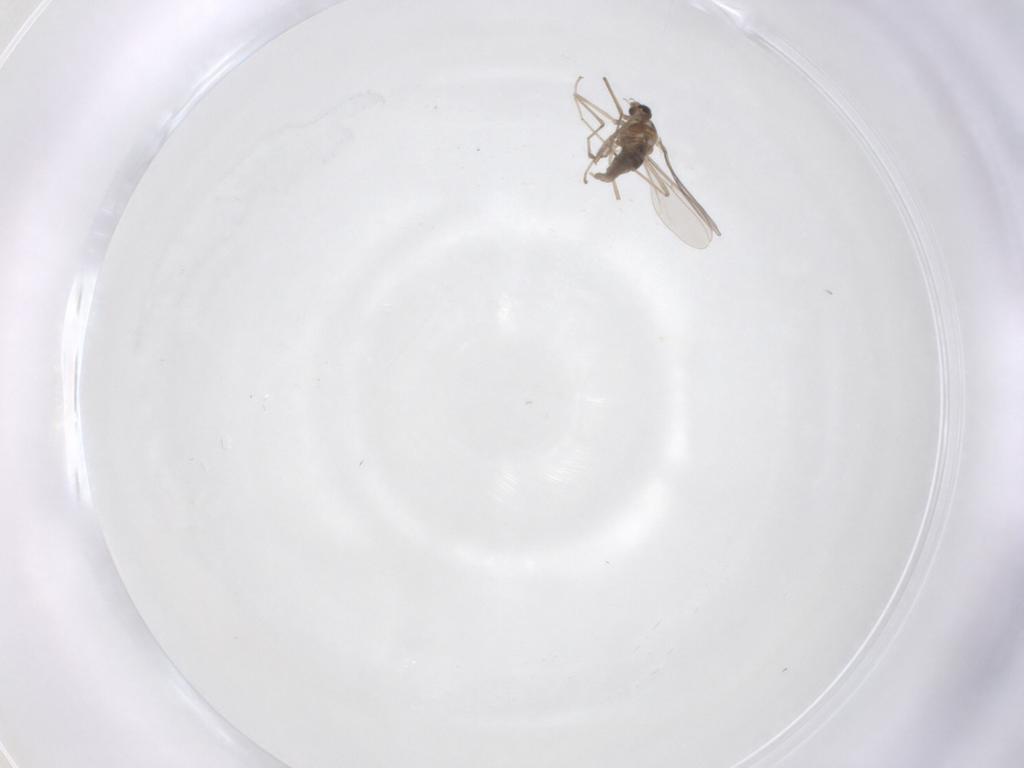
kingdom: Animalia
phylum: Arthropoda
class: Insecta
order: Diptera
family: Cecidomyiidae
